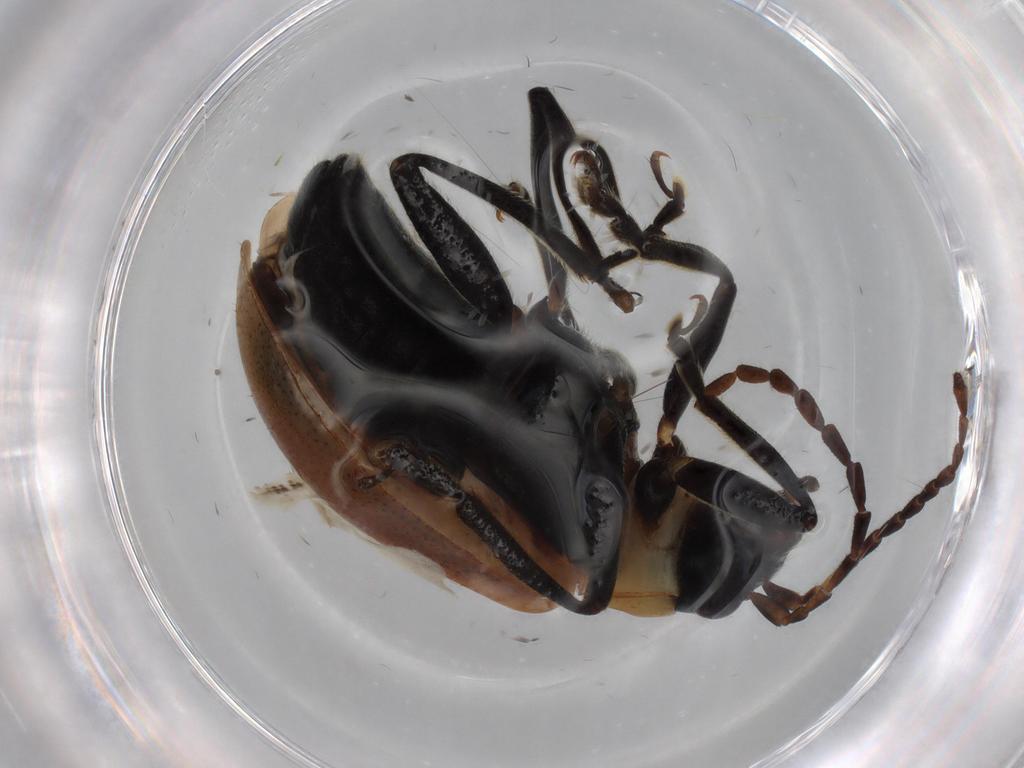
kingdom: Animalia
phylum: Arthropoda
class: Insecta
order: Coleoptera
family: Chrysomelidae
